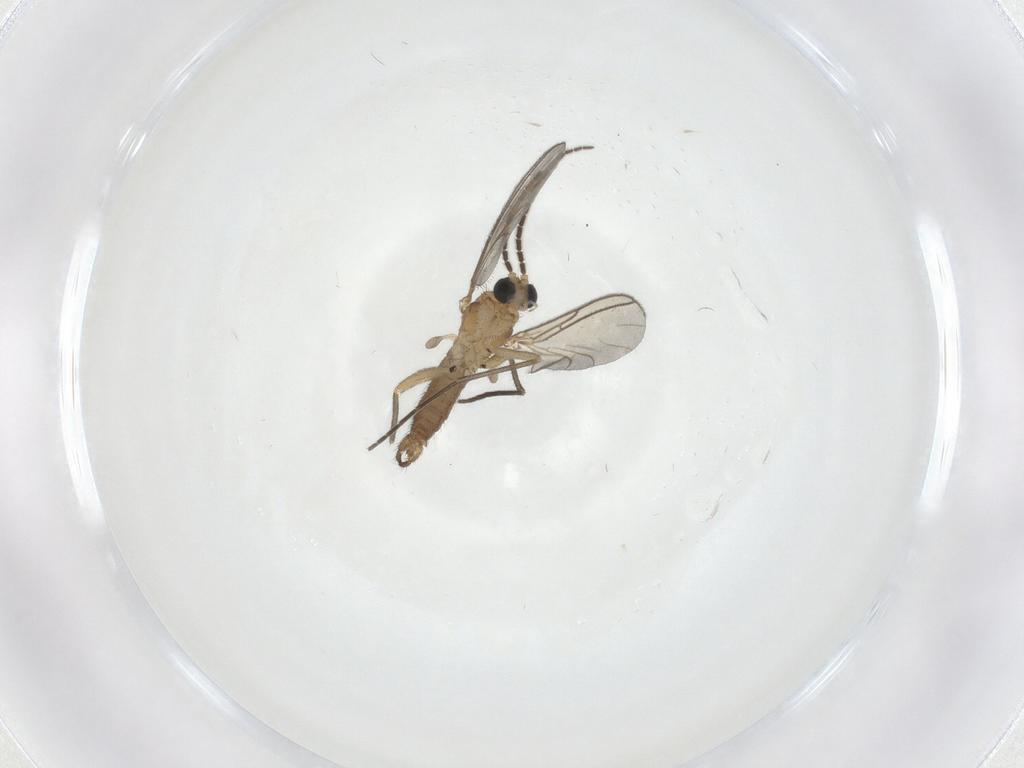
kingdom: Animalia
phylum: Arthropoda
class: Insecta
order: Diptera
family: Sciaridae
